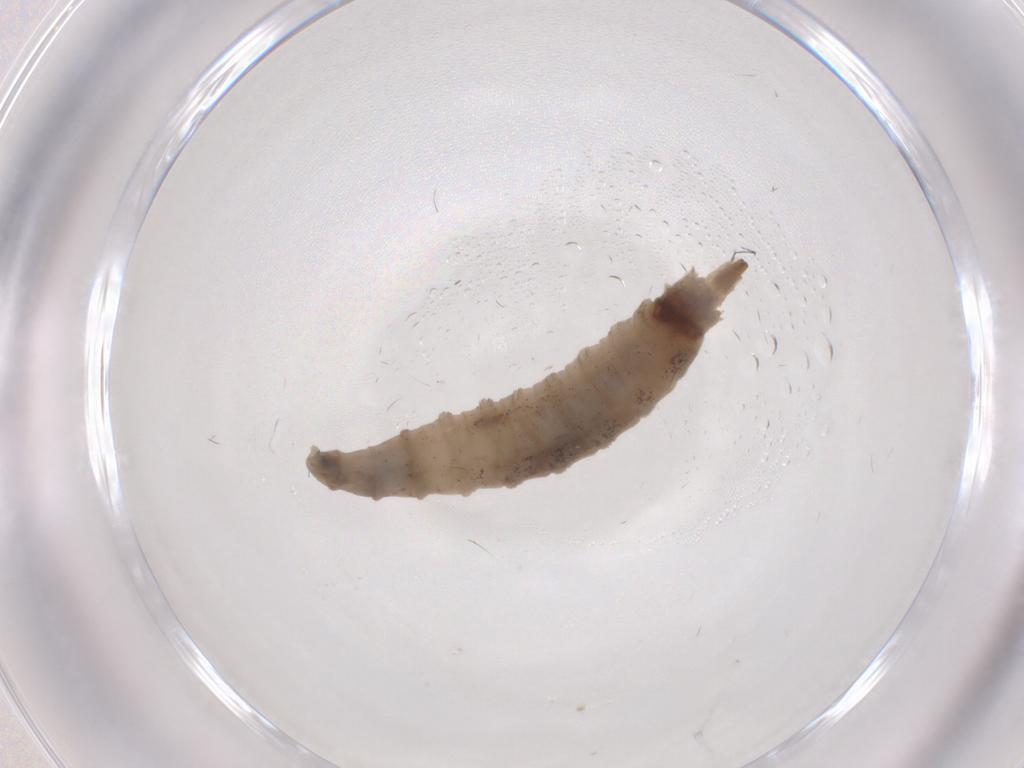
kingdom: Animalia
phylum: Arthropoda
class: Insecta
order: Diptera
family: Drosophilidae
